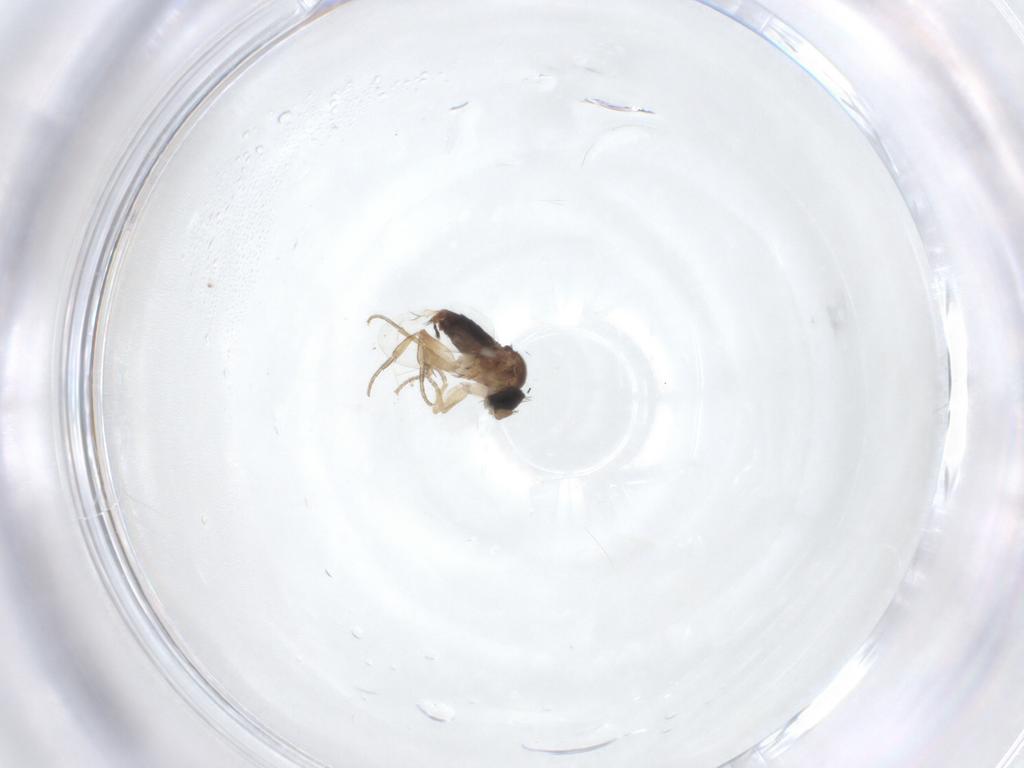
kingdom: Animalia
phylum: Arthropoda
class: Insecta
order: Diptera
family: Phoridae
